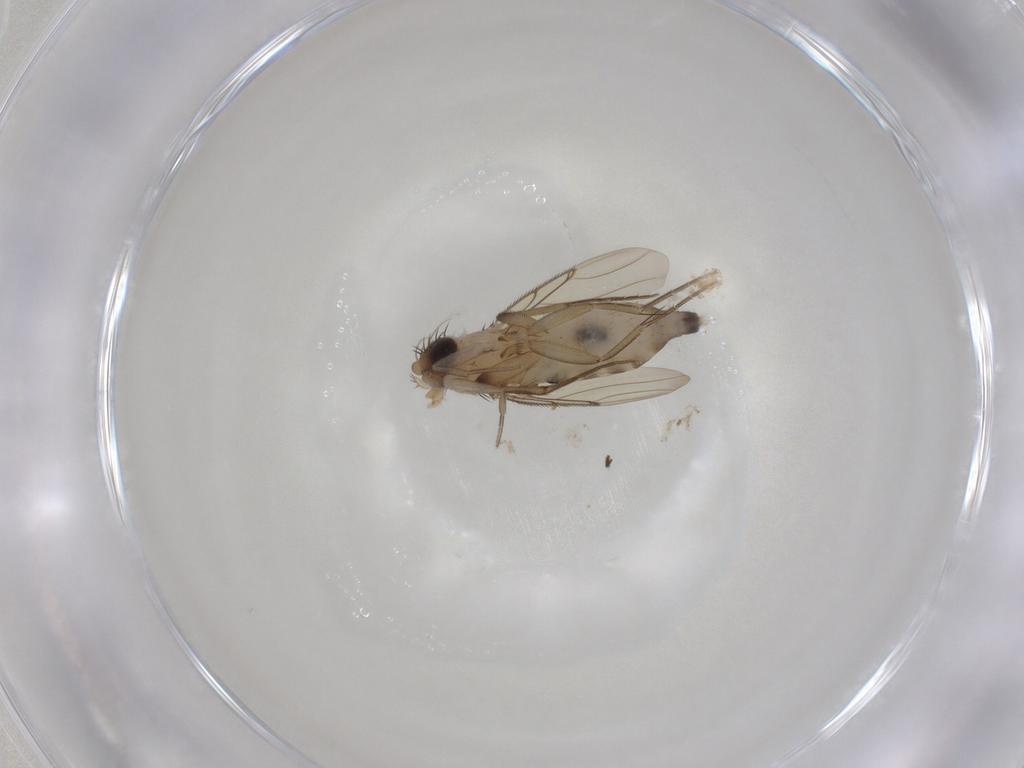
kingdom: Animalia
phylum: Arthropoda
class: Insecta
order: Diptera
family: Phoridae
